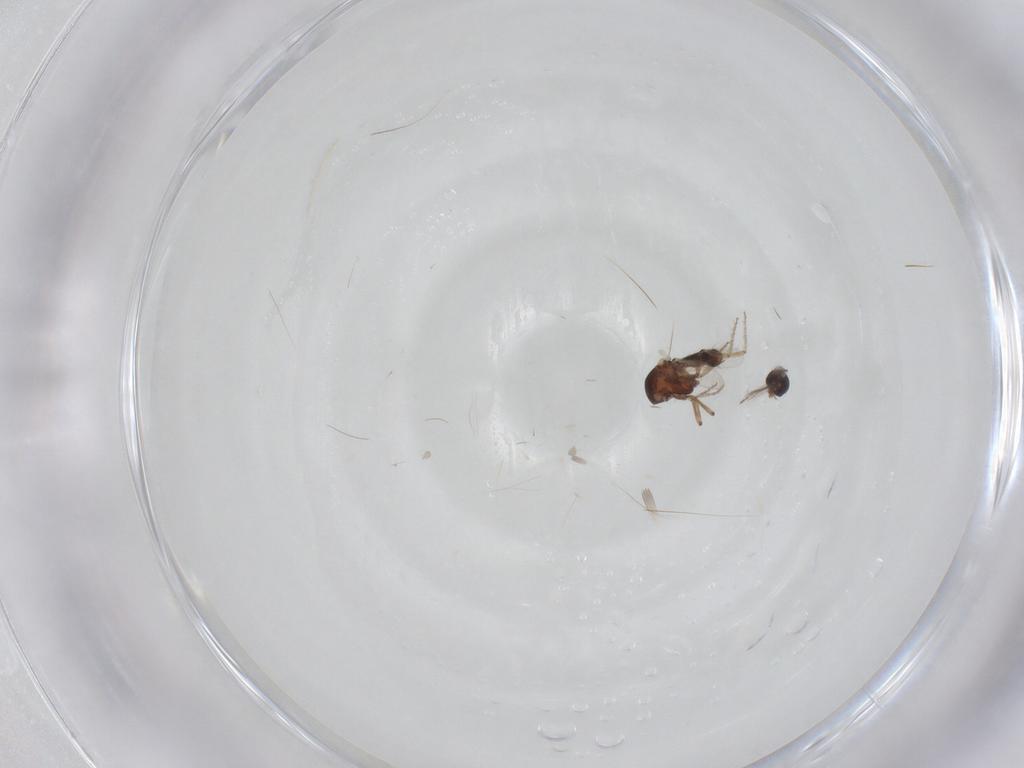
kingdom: Animalia
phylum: Arthropoda
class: Insecta
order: Diptera
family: Ceratopogonidae
